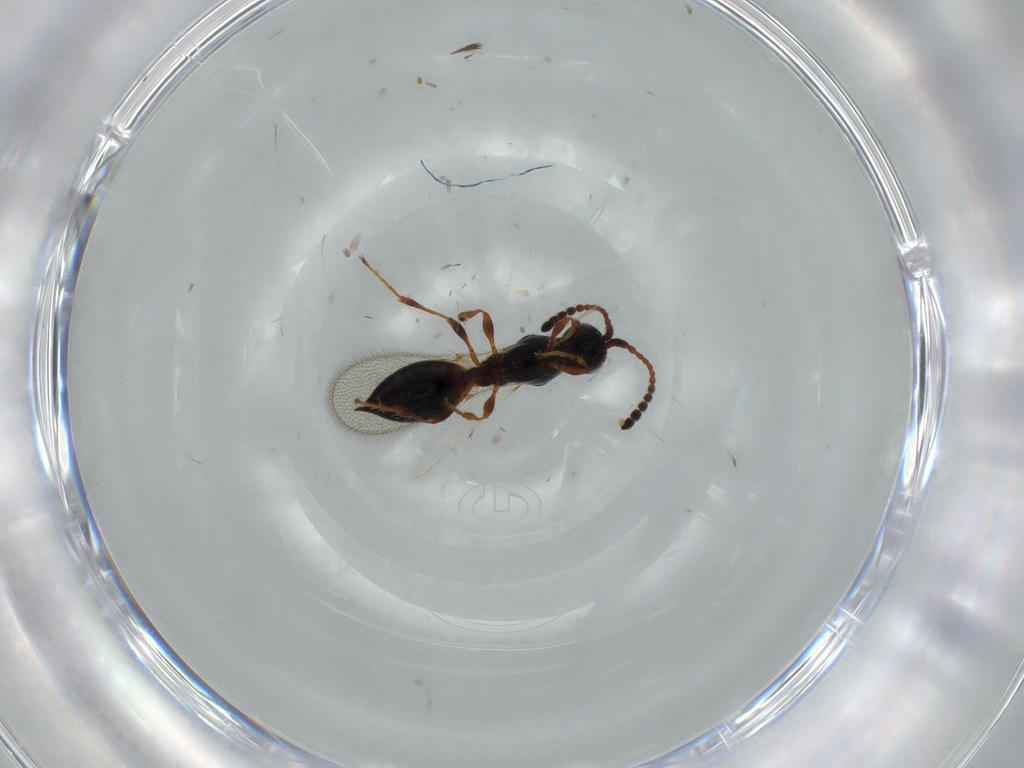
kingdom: Animalia
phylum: Arthropoda
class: Insecta
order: Hymenoptera
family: Diapriidae
